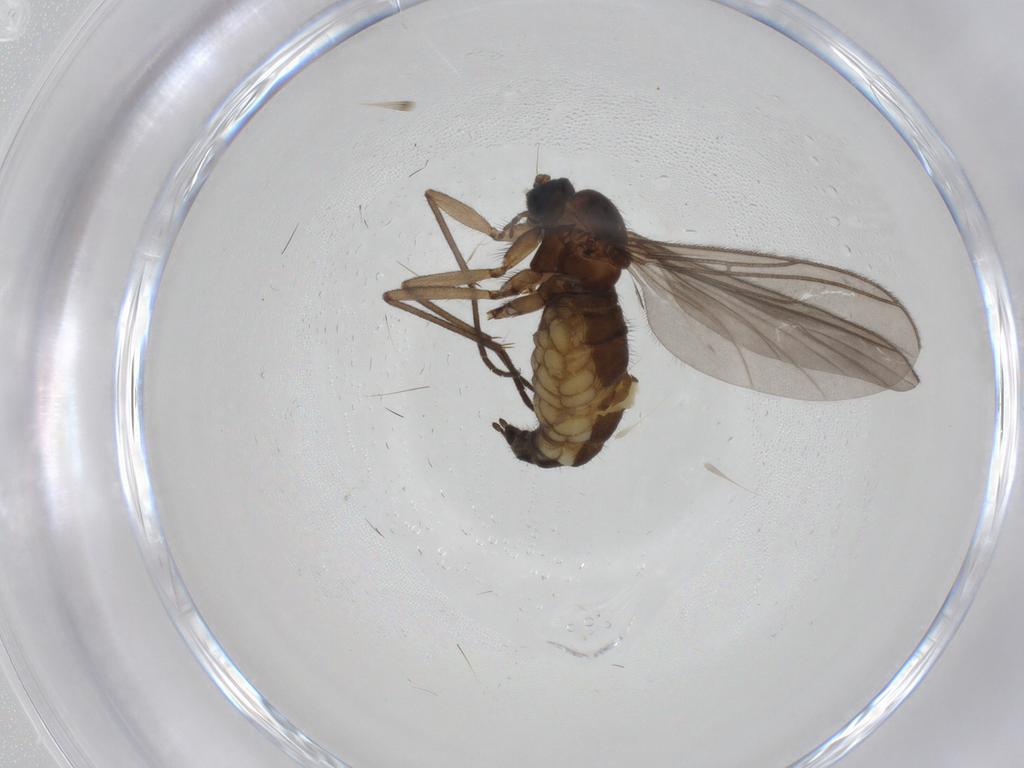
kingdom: Animalia
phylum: Arthropoda
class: Insecta
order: Diptera
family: Sciaridae
